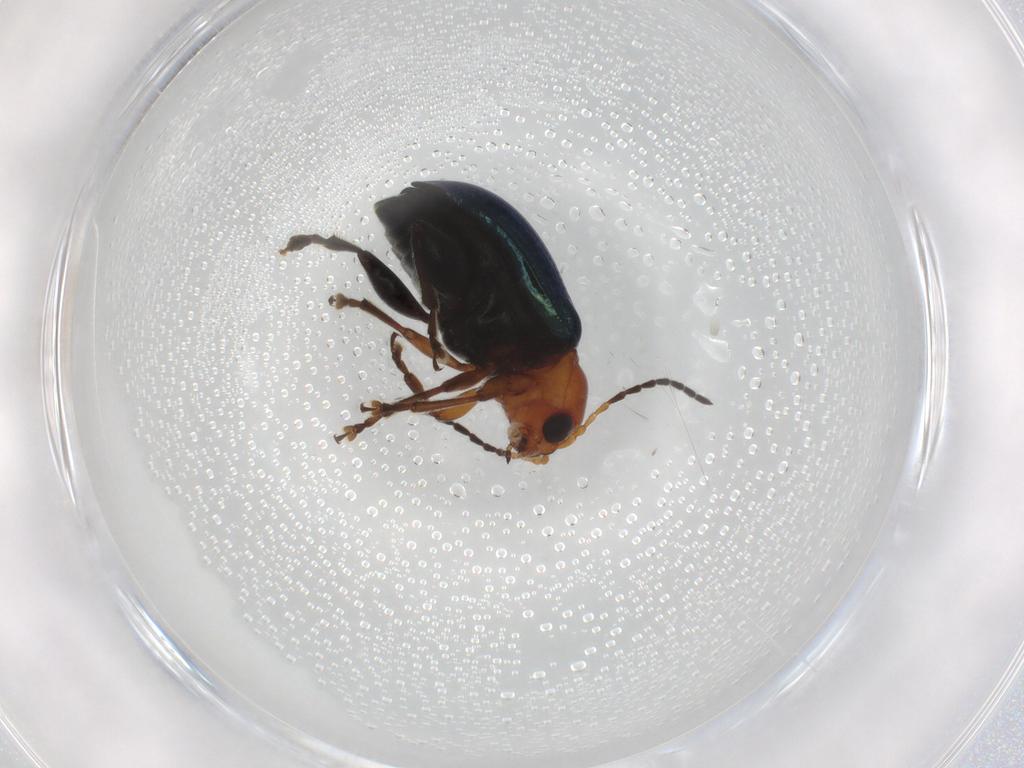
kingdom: Animalia
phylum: Arthropoda
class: Insecta
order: Coleoptera
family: Chrysomelidae
